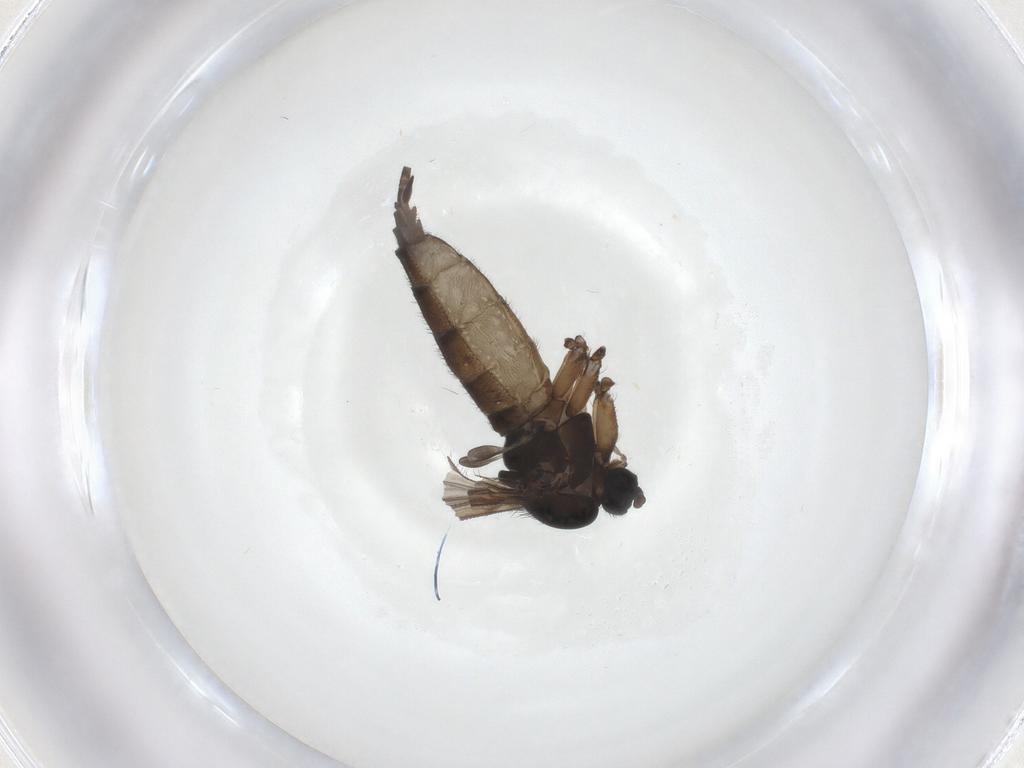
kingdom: Animalia
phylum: Arthropoda
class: Insecta
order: Diptera
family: Sciaridae
